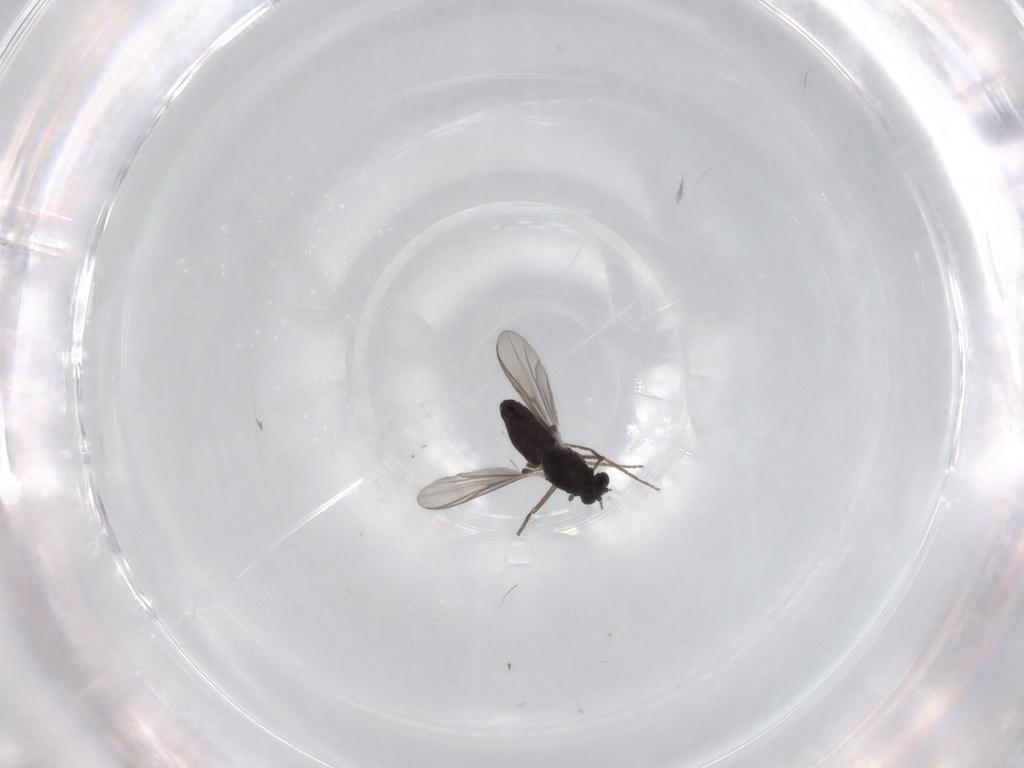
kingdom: Animalia
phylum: Arthropoda
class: Insecta
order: Diptera
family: Chironomidae
